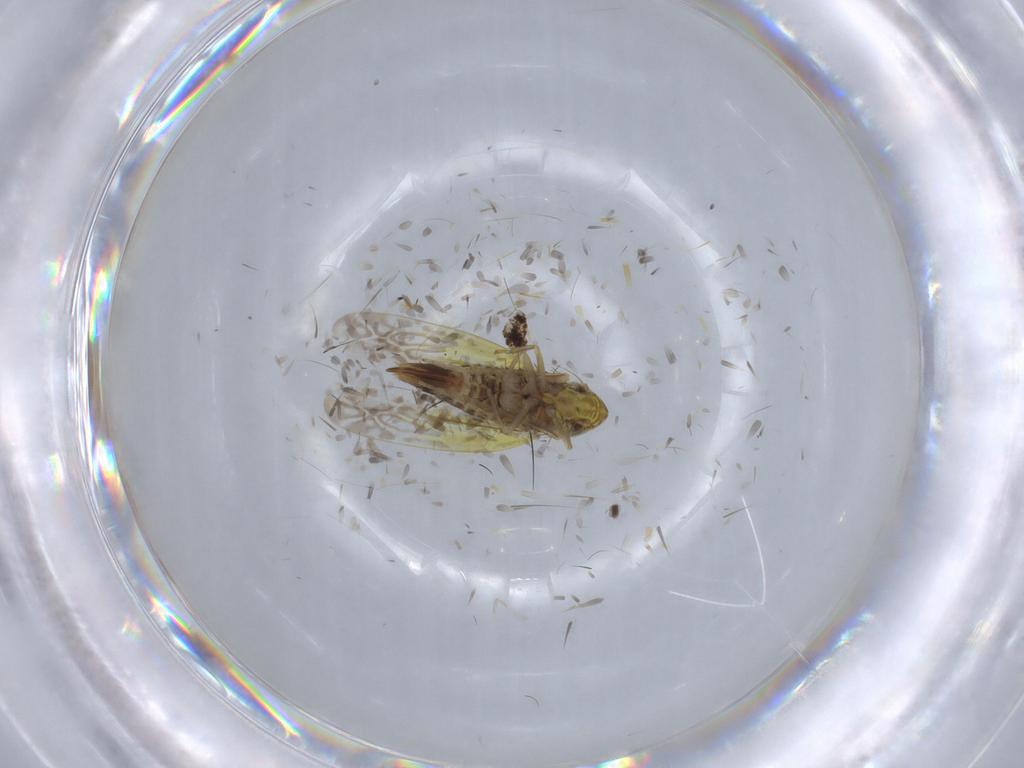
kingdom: Animalia
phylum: Arthropoda
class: Insecta
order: Hemiptera
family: Cicadellidae
